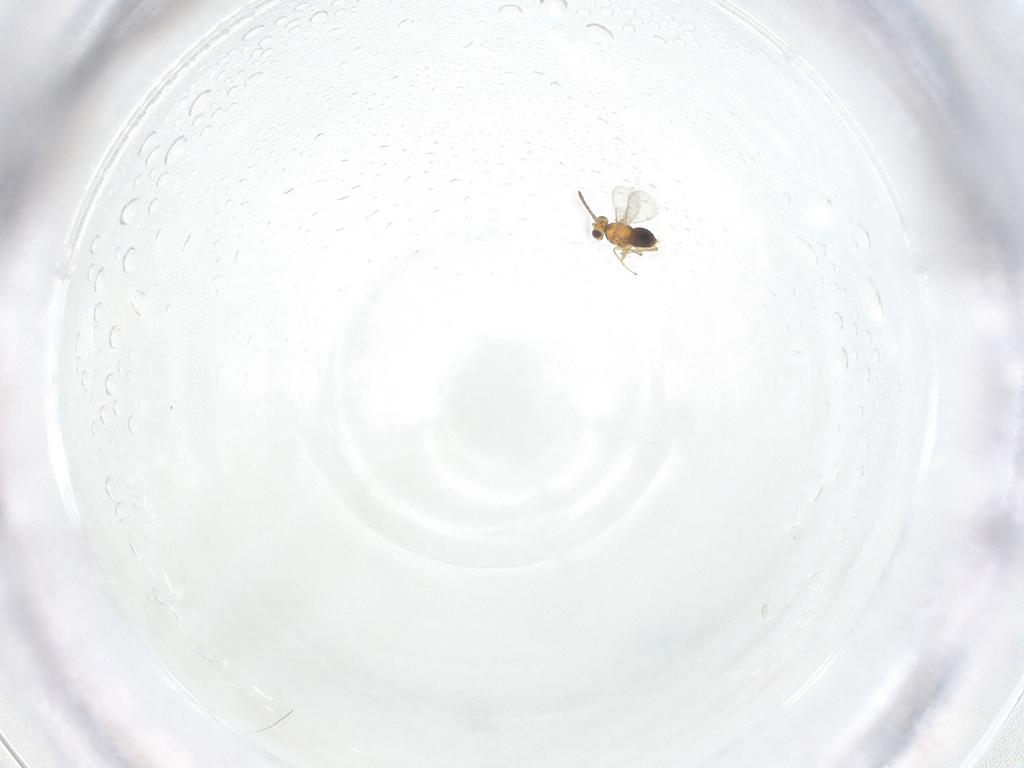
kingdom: Animalia
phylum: Arthropoda
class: Insecta
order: Hymenoptera
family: Aphelinidae
